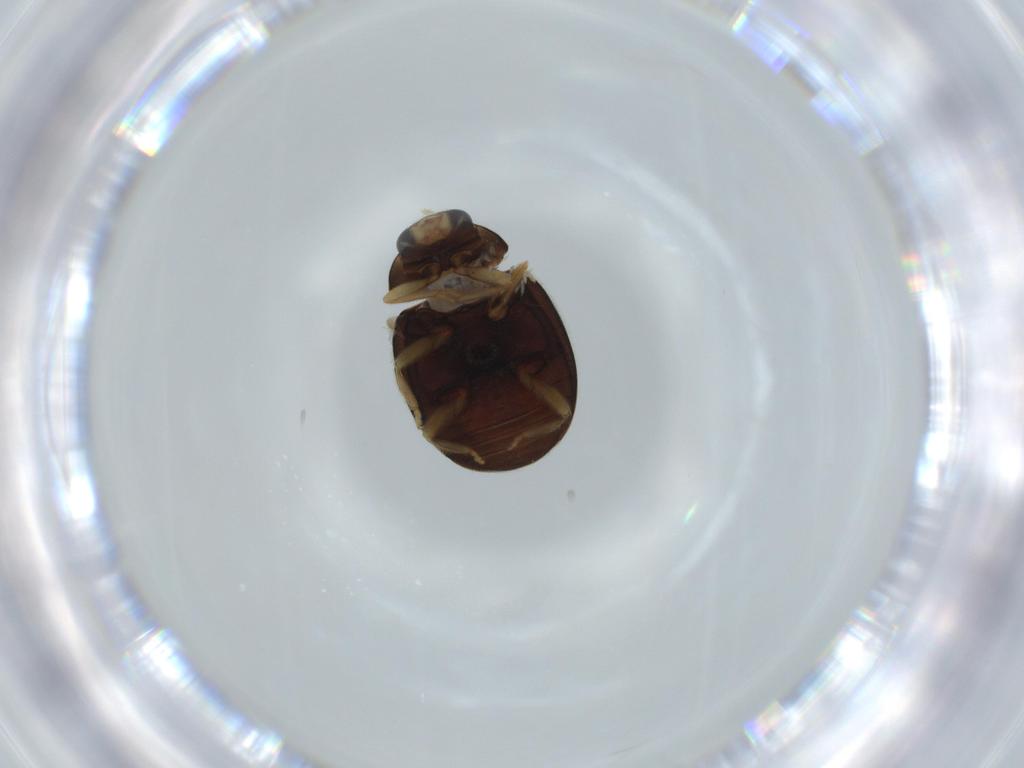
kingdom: Animalia
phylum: Arthropoda
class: Insecta
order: Coleoptera
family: Coccinellidae
